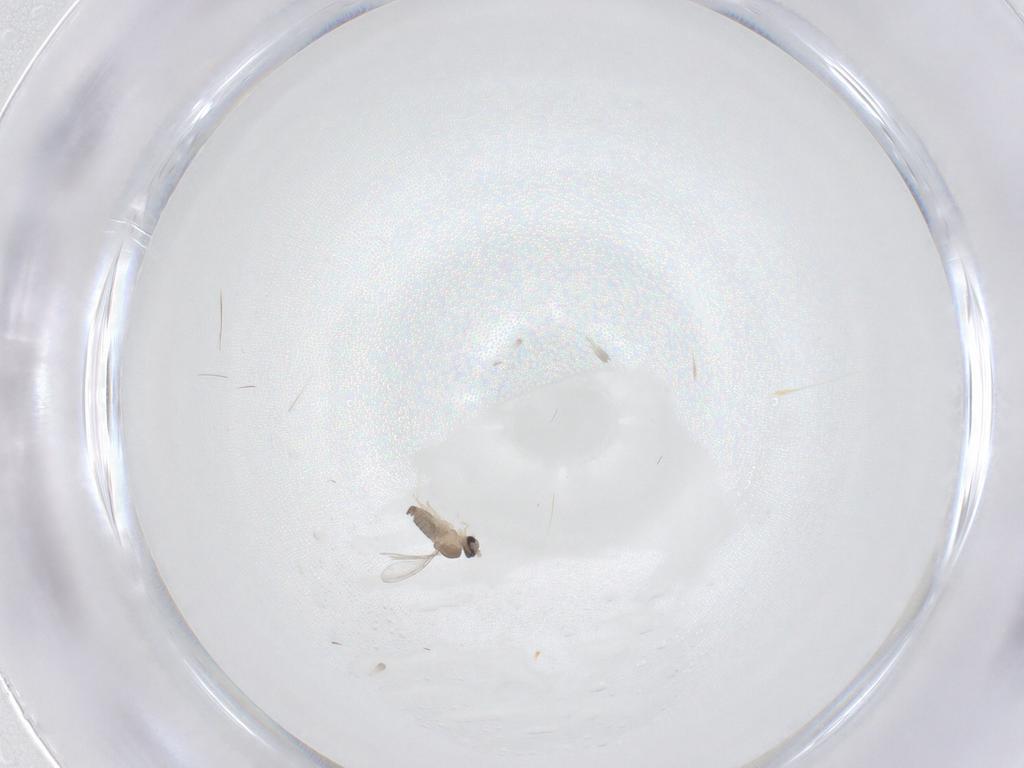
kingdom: Animalia
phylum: Arthropoda
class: Insecta
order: Diptera
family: Cecidomyiidae
